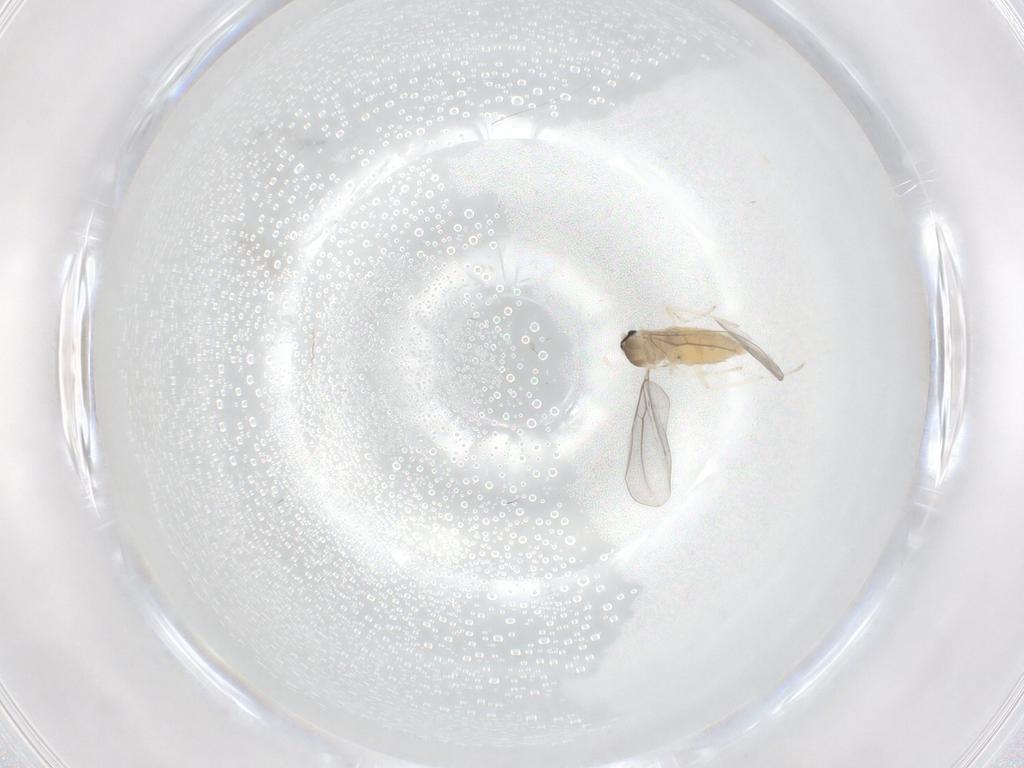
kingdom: Animalia
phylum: Arthropoda
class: Insecta
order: Diptera
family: Cecidomyiidae
